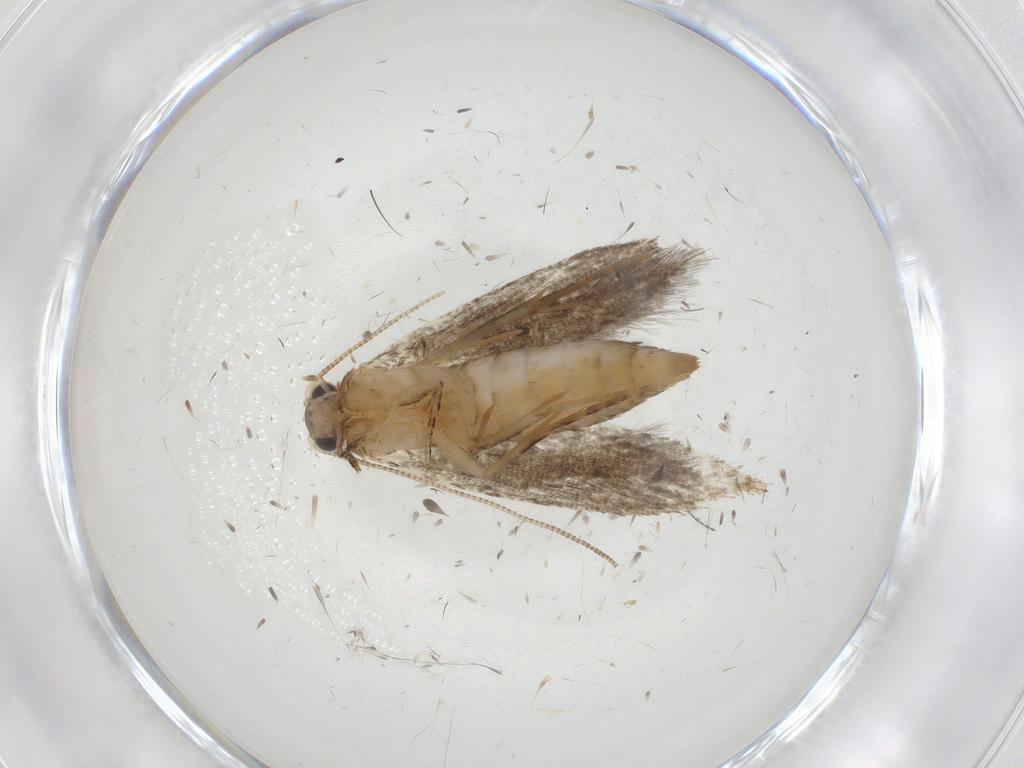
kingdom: Animalia
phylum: Arthropoda
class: Insecta
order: Lepidoptera
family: Tineidae
